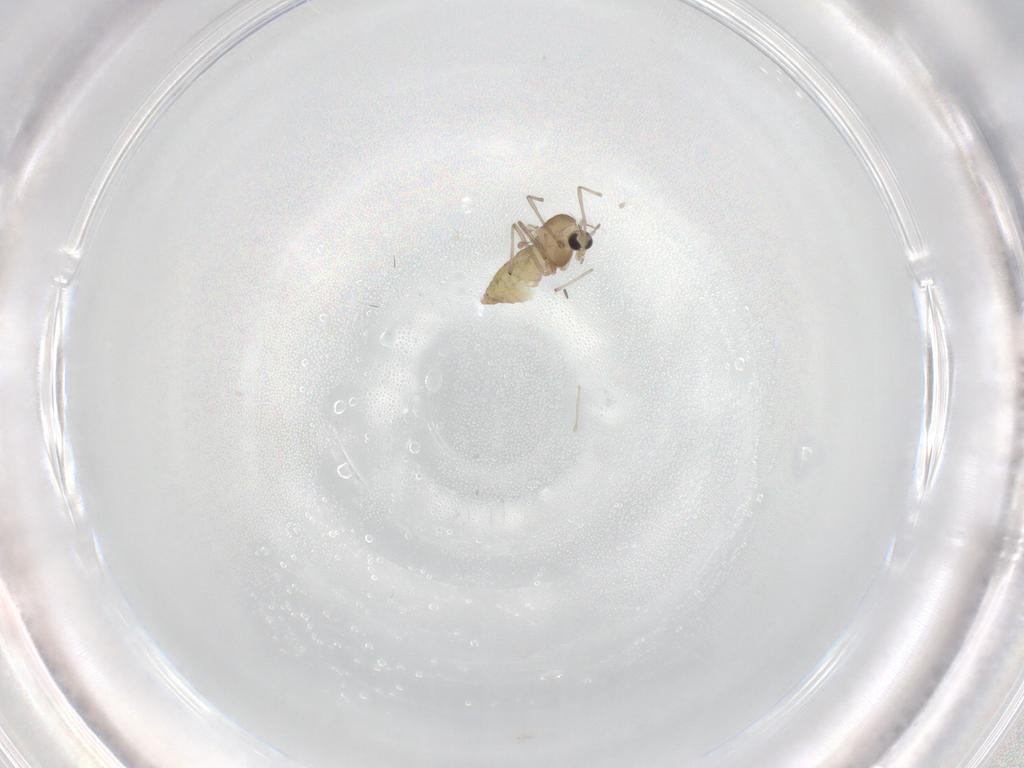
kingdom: Animalia
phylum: Arthropoda
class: Insecta
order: Diptera
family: Chironomidae
